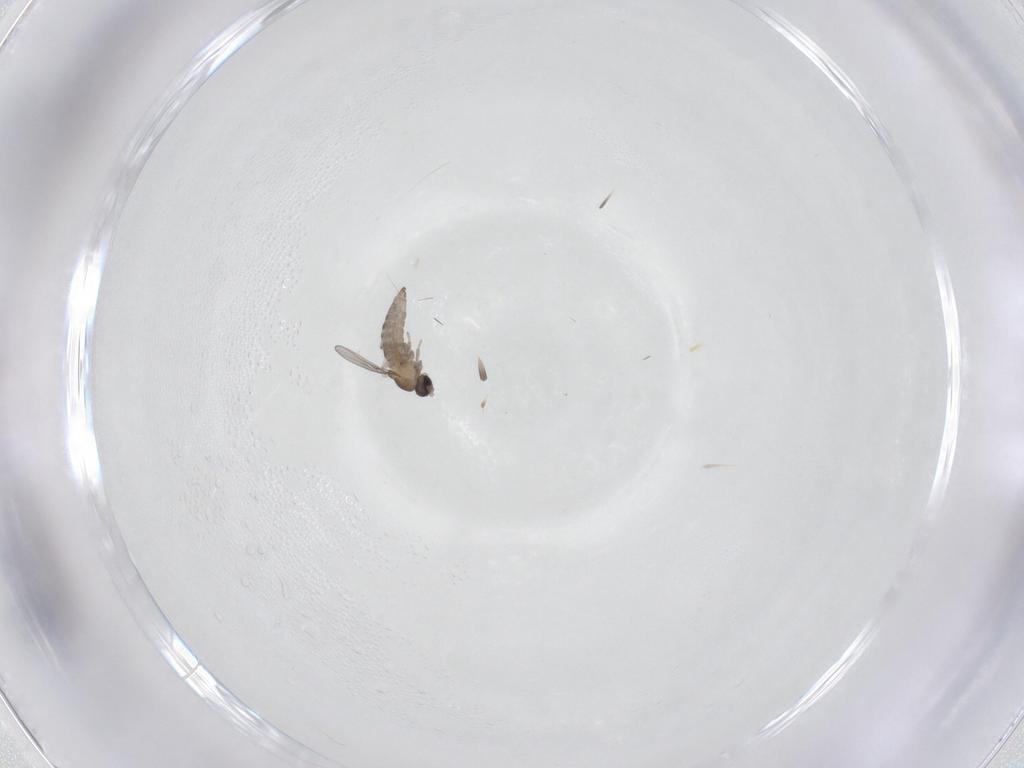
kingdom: Animalia
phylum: Arthropoda
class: Insecta
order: Diptera
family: Cecidomyiidae
